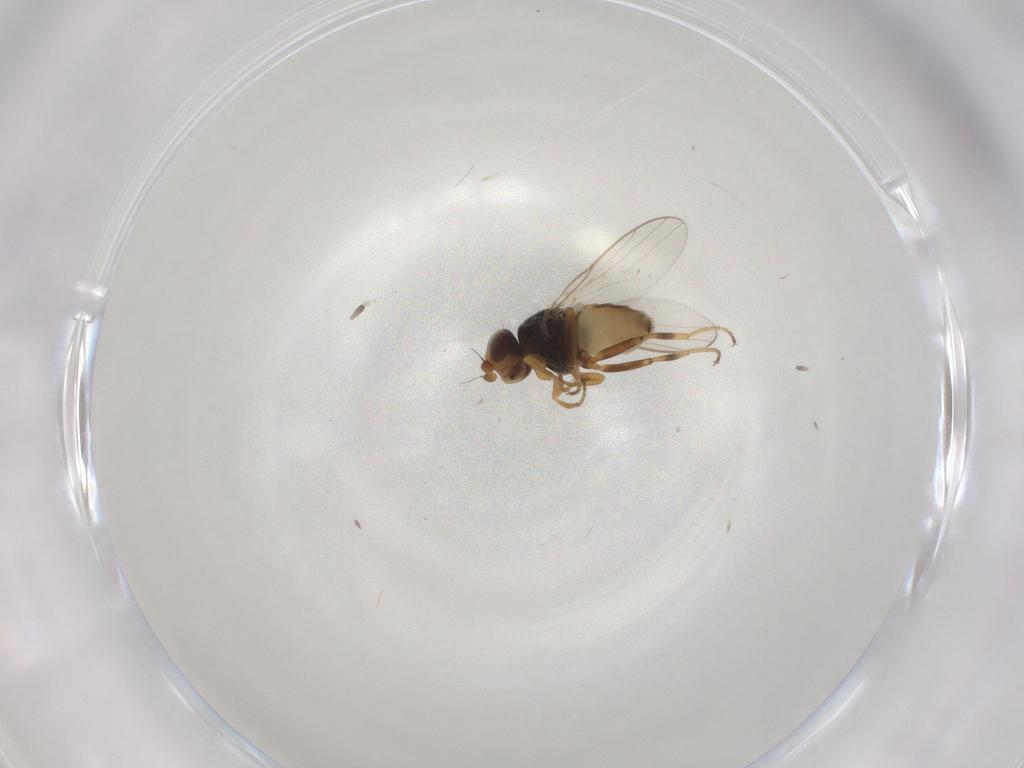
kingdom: Animalia
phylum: Arthropoda
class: Insecta
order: Diptera
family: Chloropidae
